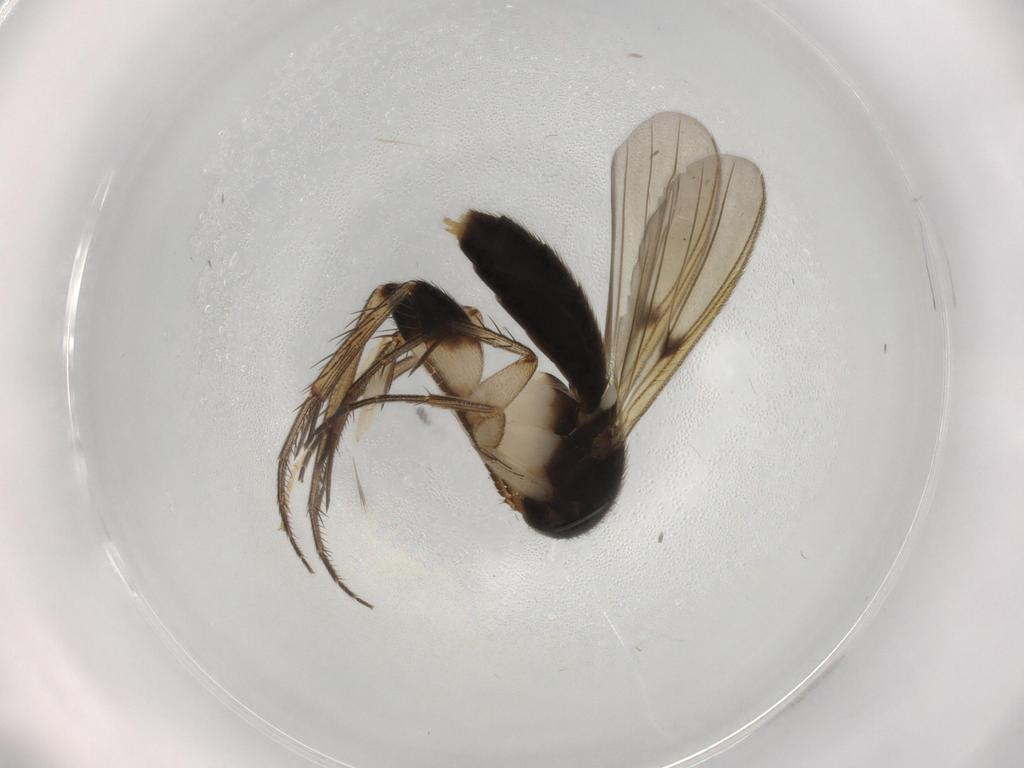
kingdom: Animalia
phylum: Arthropoda
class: Insecta
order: Diptera
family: Hybotidae
